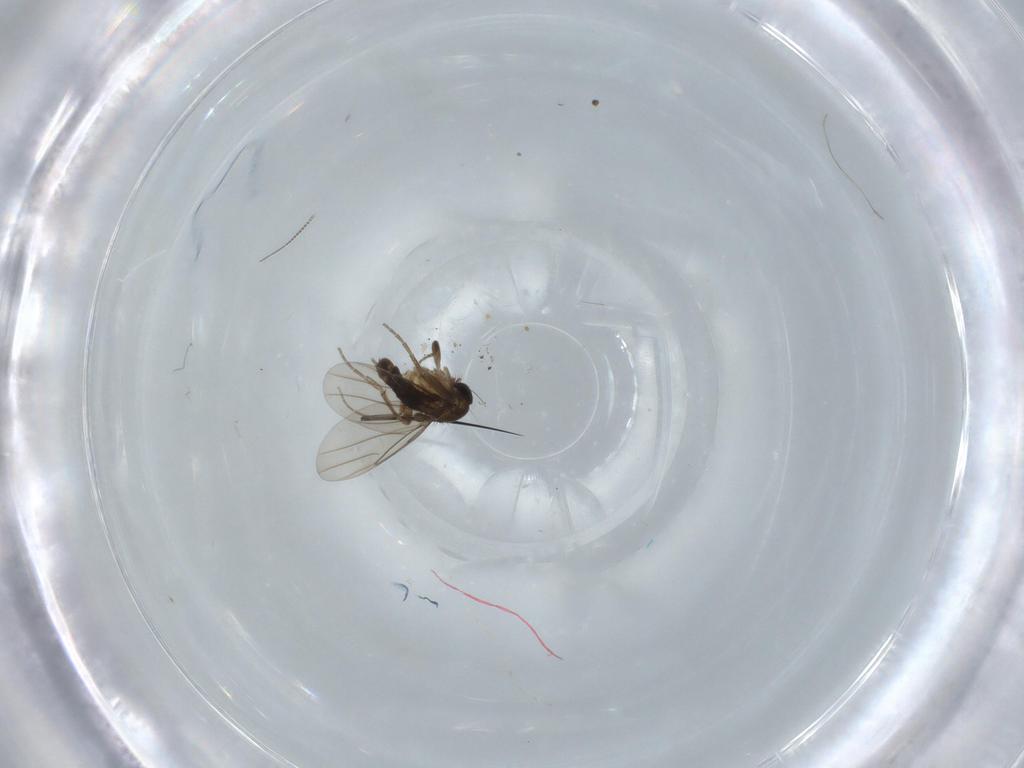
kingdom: Animalia
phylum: Arthropoda
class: Insecta
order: Diptera
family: Phoridae
